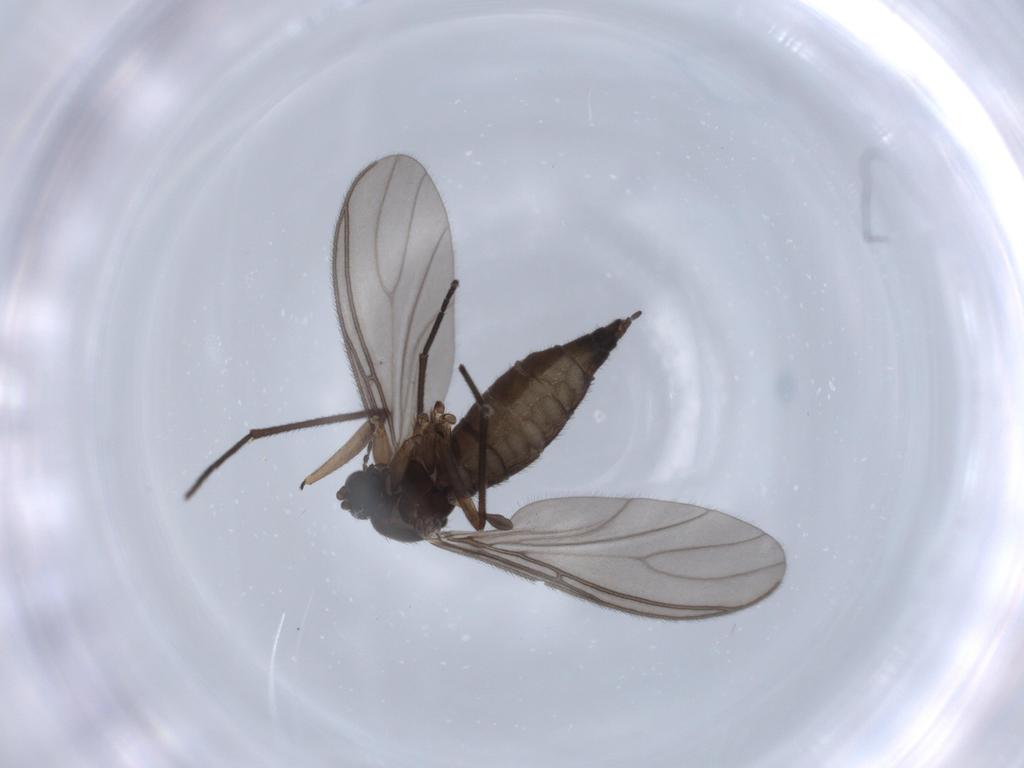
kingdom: Animalia
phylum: Arthropoda
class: Insecta
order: Diptera
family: Sciaridae
